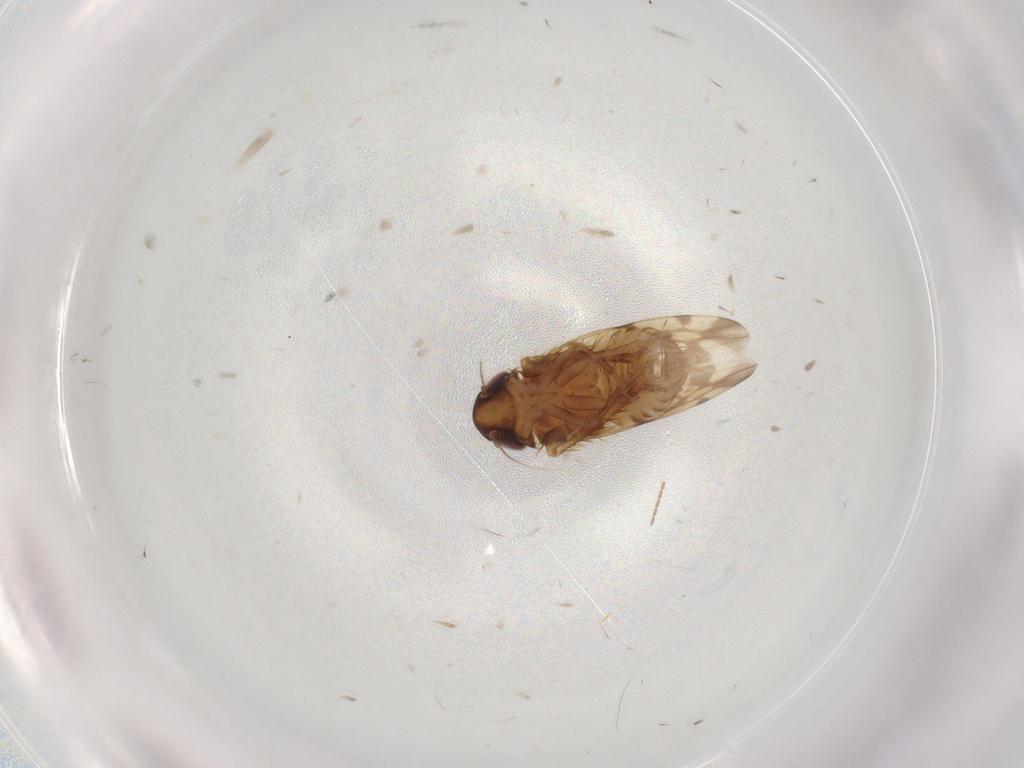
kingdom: Animalia
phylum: Arthropoda
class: Insecta
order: Hemiptera
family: Cicadellidae
